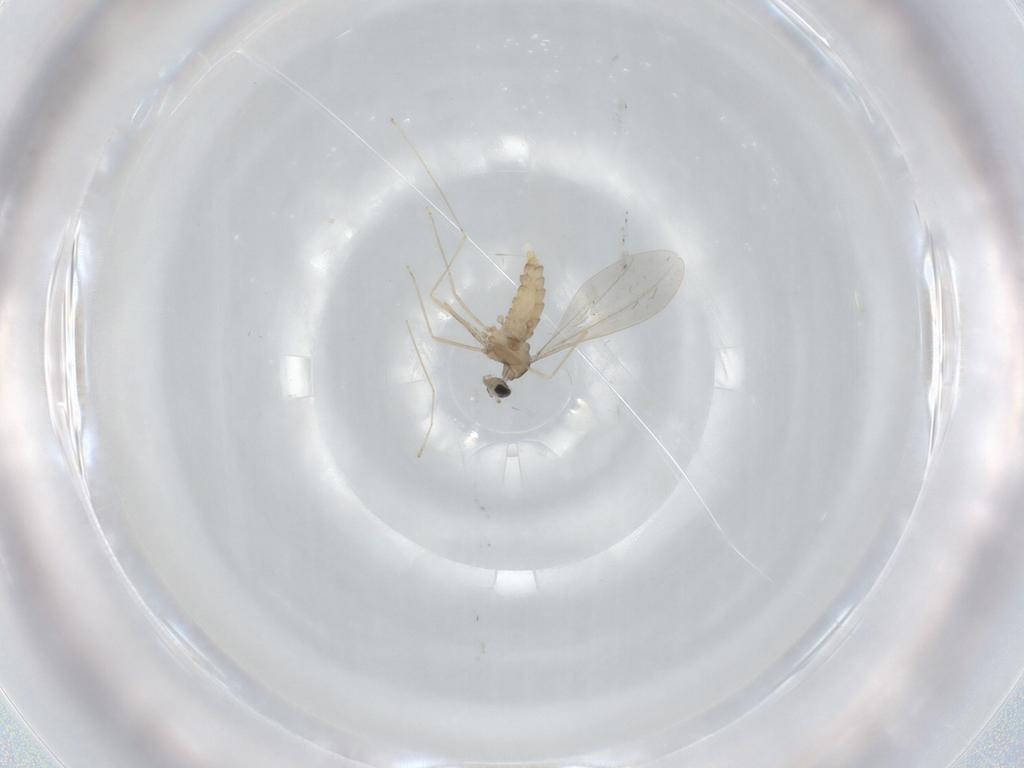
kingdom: Animalia
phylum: Arthropoda
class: Insecta
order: Diptera
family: Cecidomyiidae
